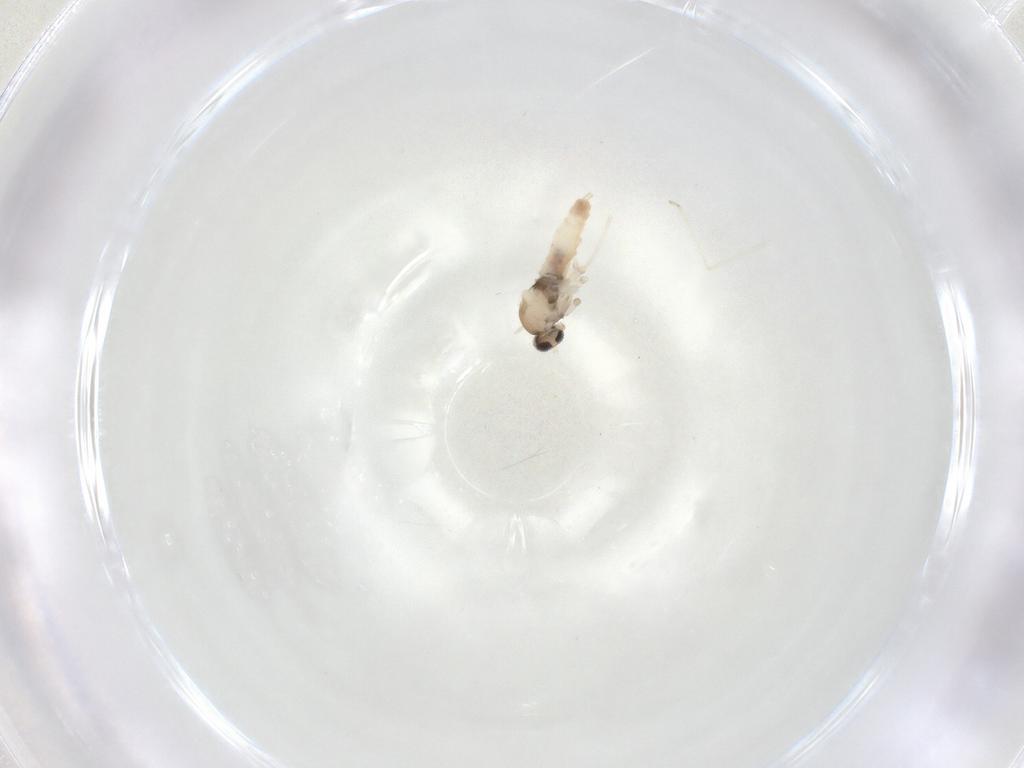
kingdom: Animalia
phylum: Arthropoda
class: Insecta
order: Diptera
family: Cecidomyiidae
